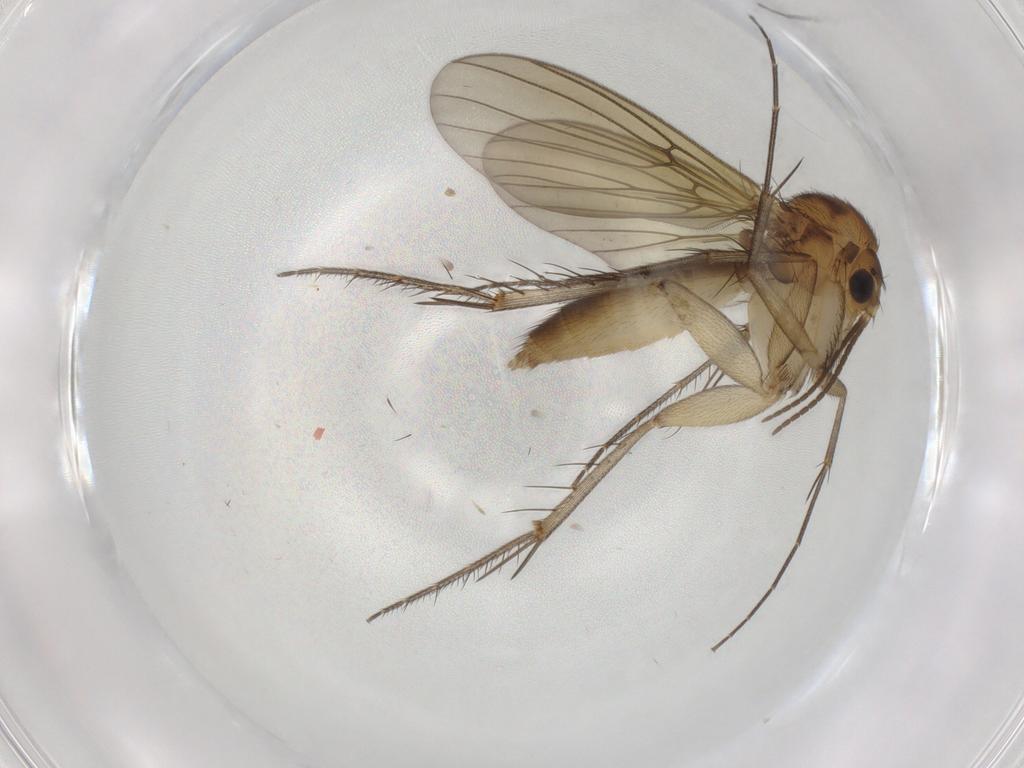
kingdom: Animalia
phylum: Arthropoda
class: Insecta
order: Diptera
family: Mycetophilidae
